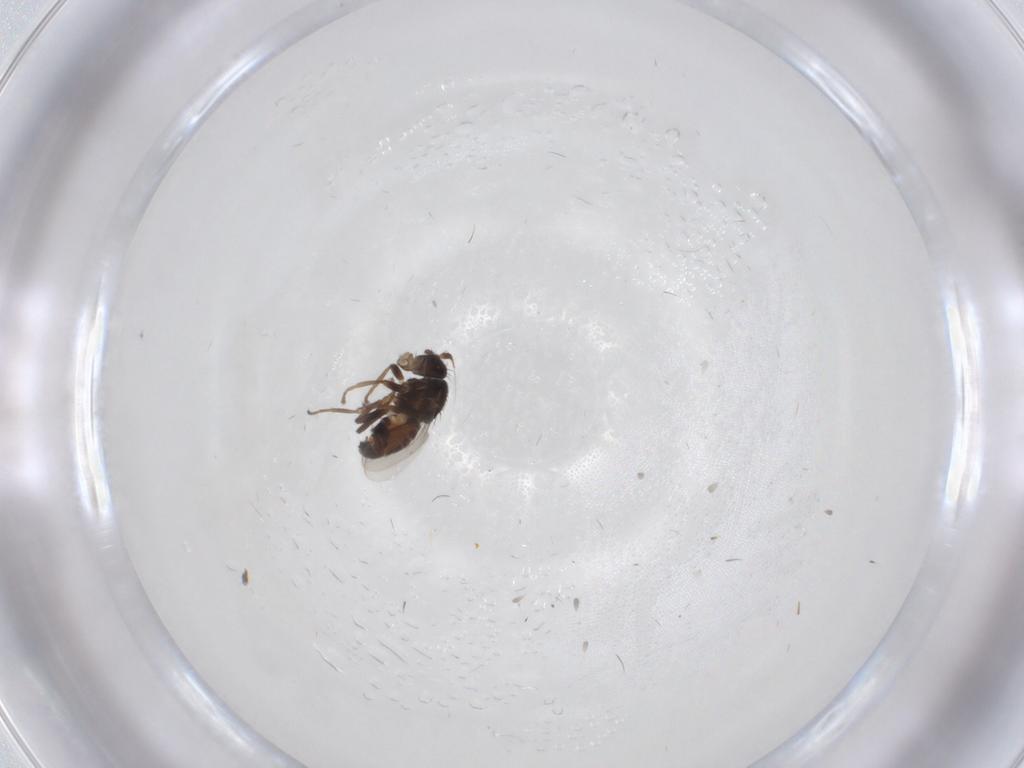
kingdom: Animalia
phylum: Arthropoda
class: Insecta
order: Diptera
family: Sphaeroceridae
